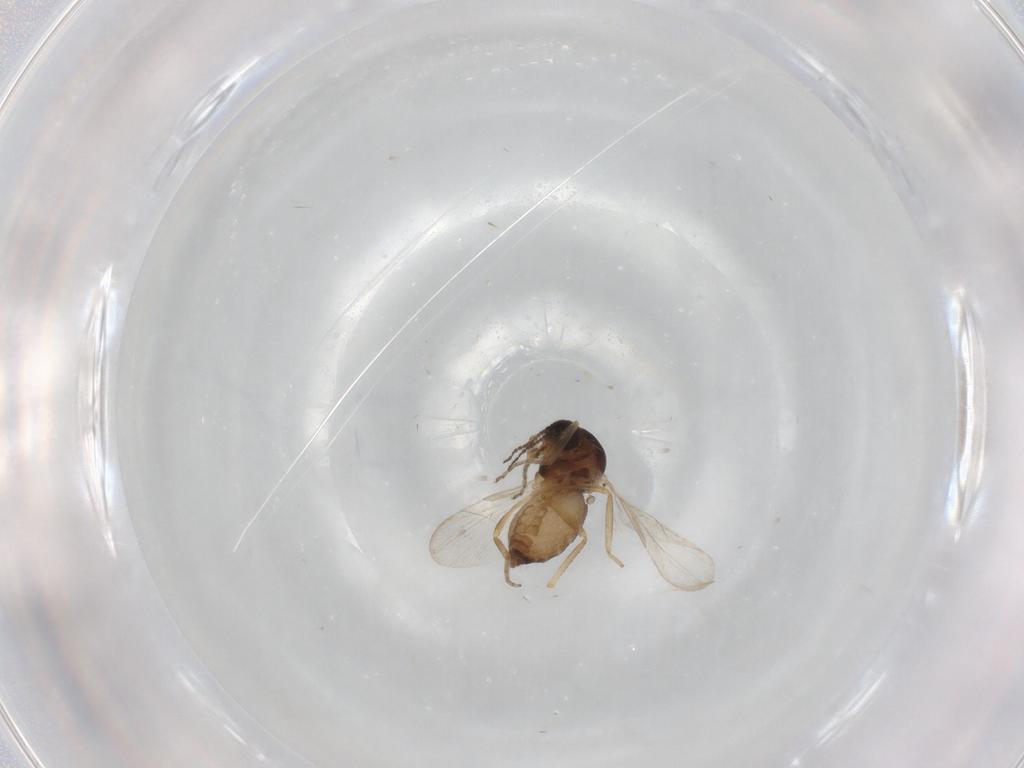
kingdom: Animalia
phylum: Arthropoda
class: Insecta
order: Diptera
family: Ceratopogonidae
